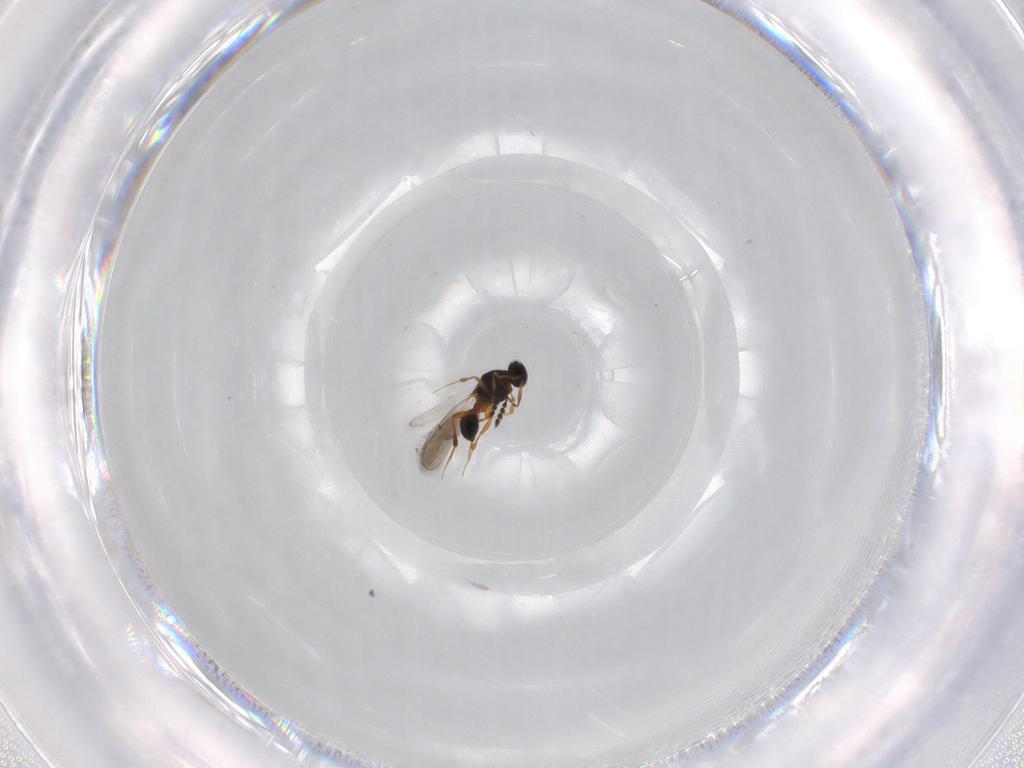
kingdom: Animalia
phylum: Arthropoda
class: Insecta
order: Hymenoptera
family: Platygastridae
